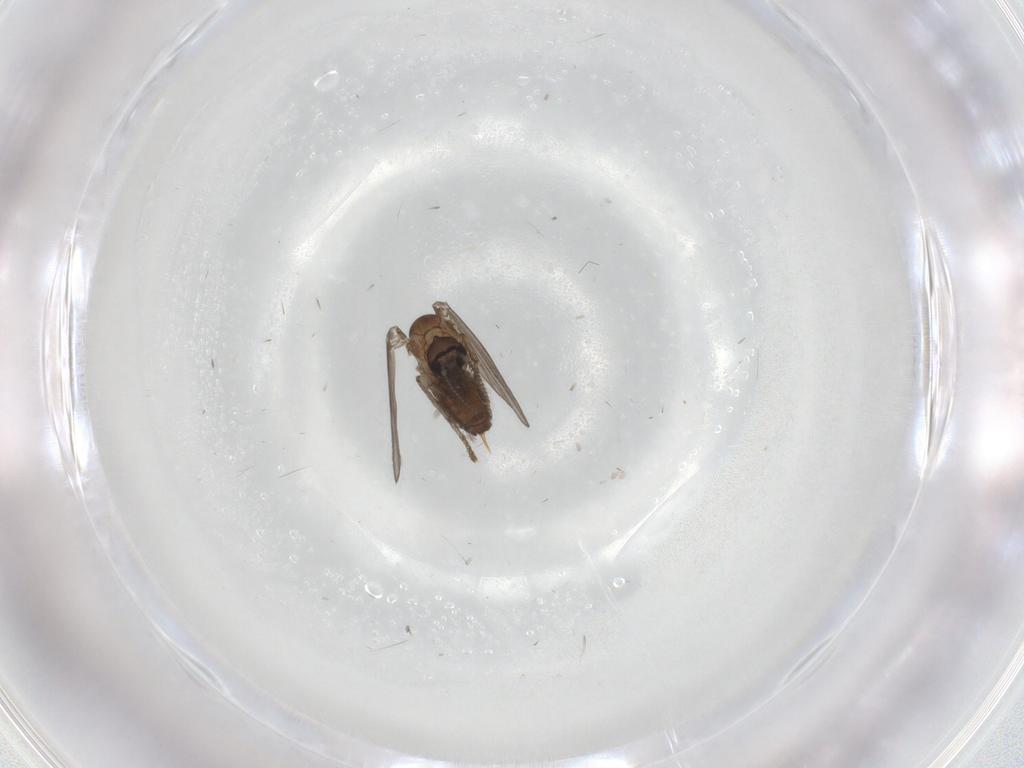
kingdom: Animalia
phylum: Arthropoda
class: Insecta
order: Diptera
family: Psychodidae
